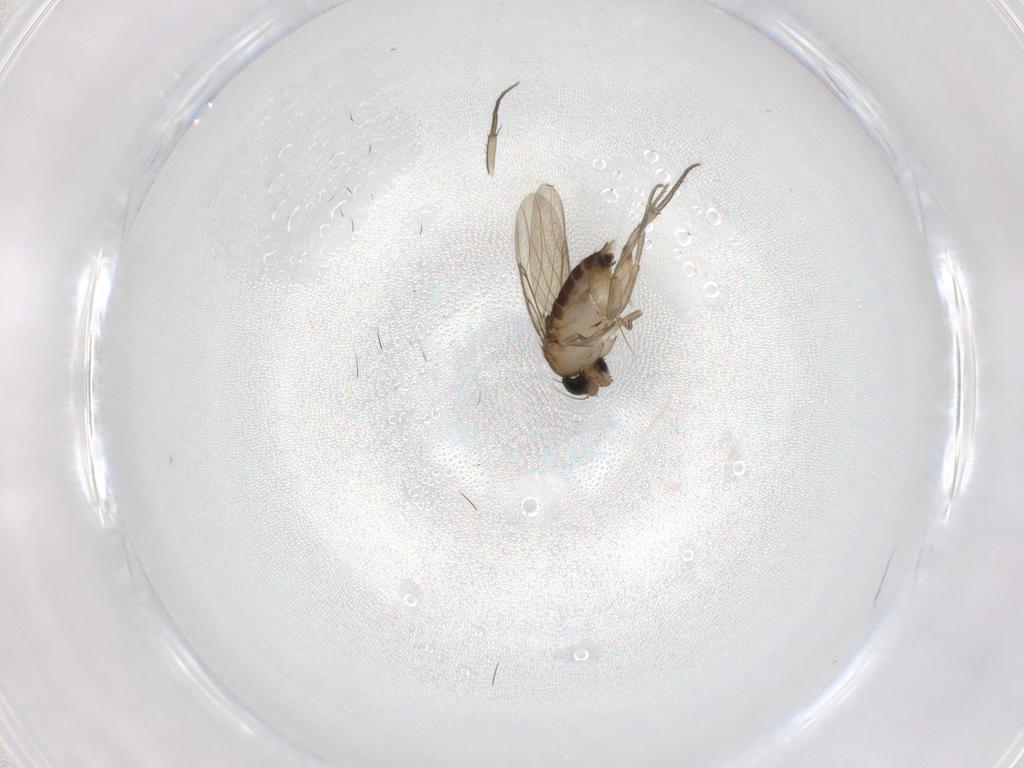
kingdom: Animalia
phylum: Arthropoda
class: Insecta
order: Diptera
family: Phoridae
